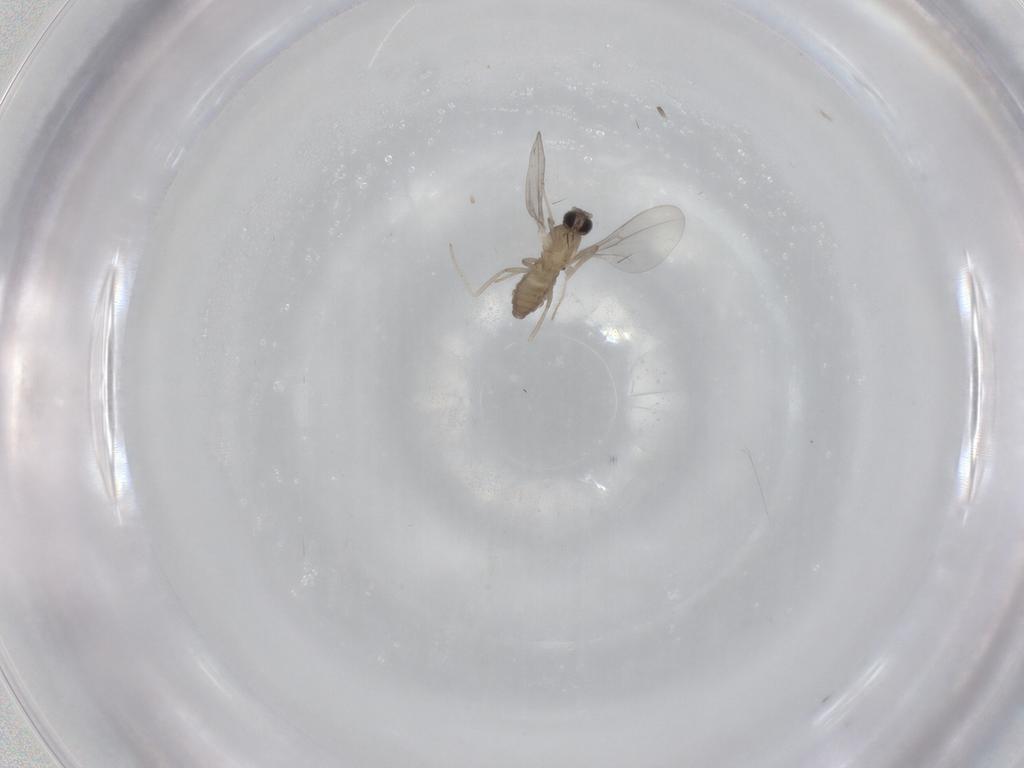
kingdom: Animalia
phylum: Arthropoda
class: Insecta
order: Diptera
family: Cecidomyiidae
